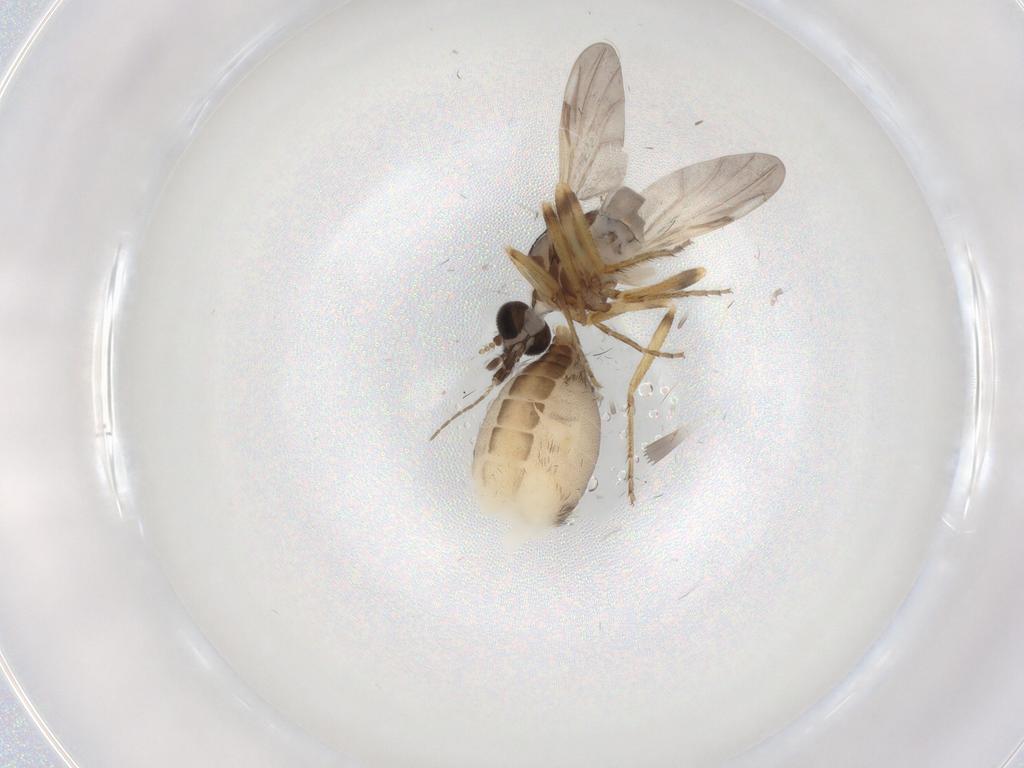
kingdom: Animalia
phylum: Arthropoda
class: Insecta
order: Diptera
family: Ceratopogonidae
